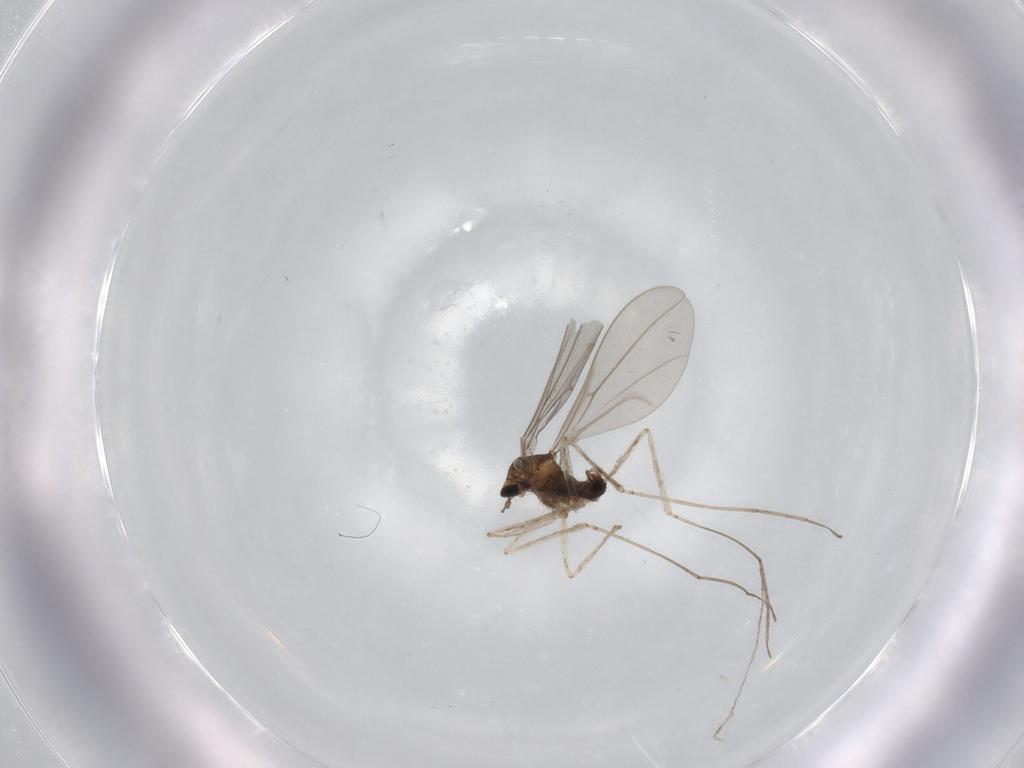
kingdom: Animalia
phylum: Arthropoda
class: Insecta
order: Diptera
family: Cecidomyiidae
